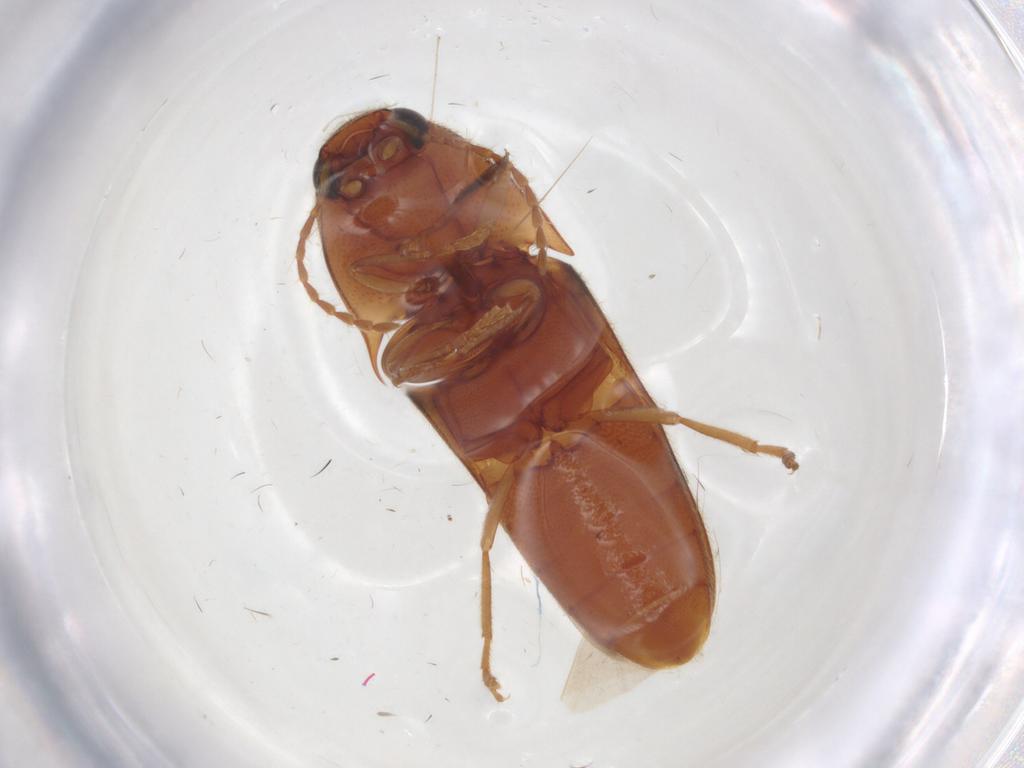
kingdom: Animalia
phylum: Arthropoda
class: Insecta
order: Coleoptera
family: Elateridae
